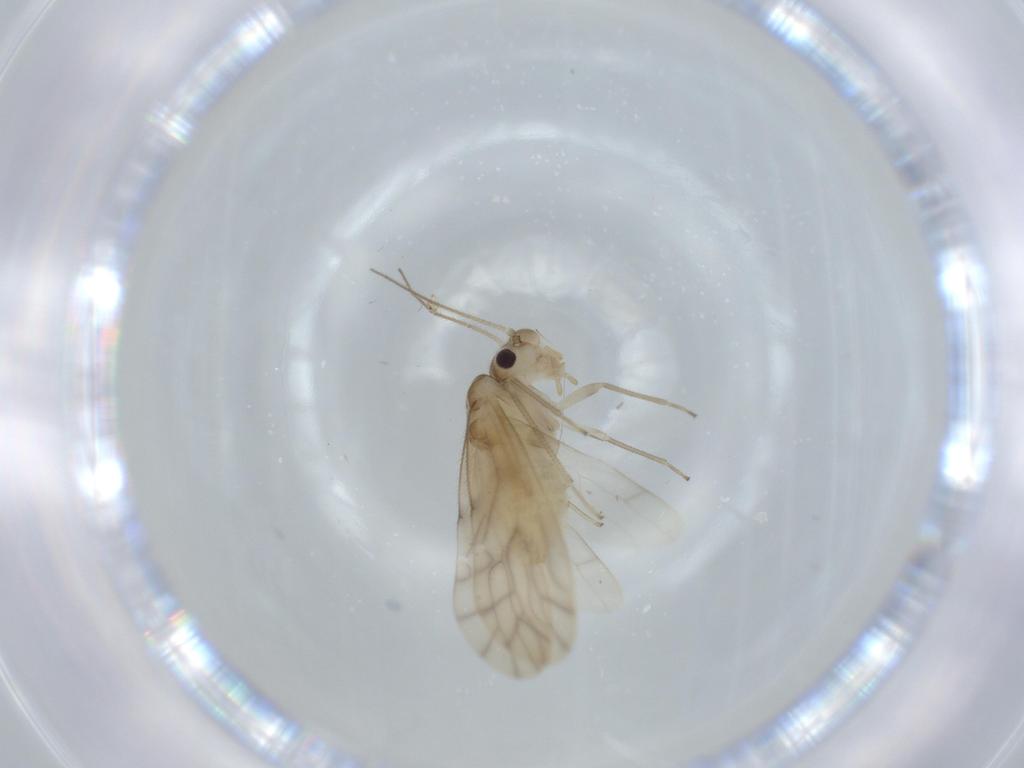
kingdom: Animalia
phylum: Arthropoda
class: Insecta
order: Psocodea
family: Caeciliusidae
